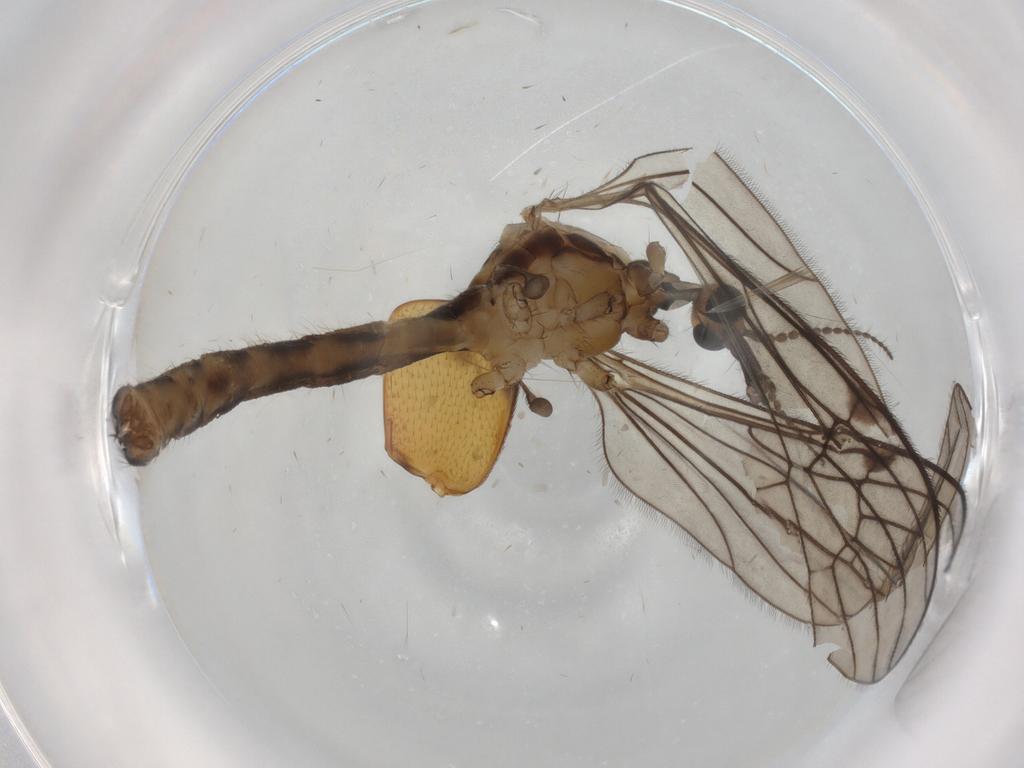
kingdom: Animalia
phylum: Arthropoda
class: Insecta
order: Diptera
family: Limoniidae
